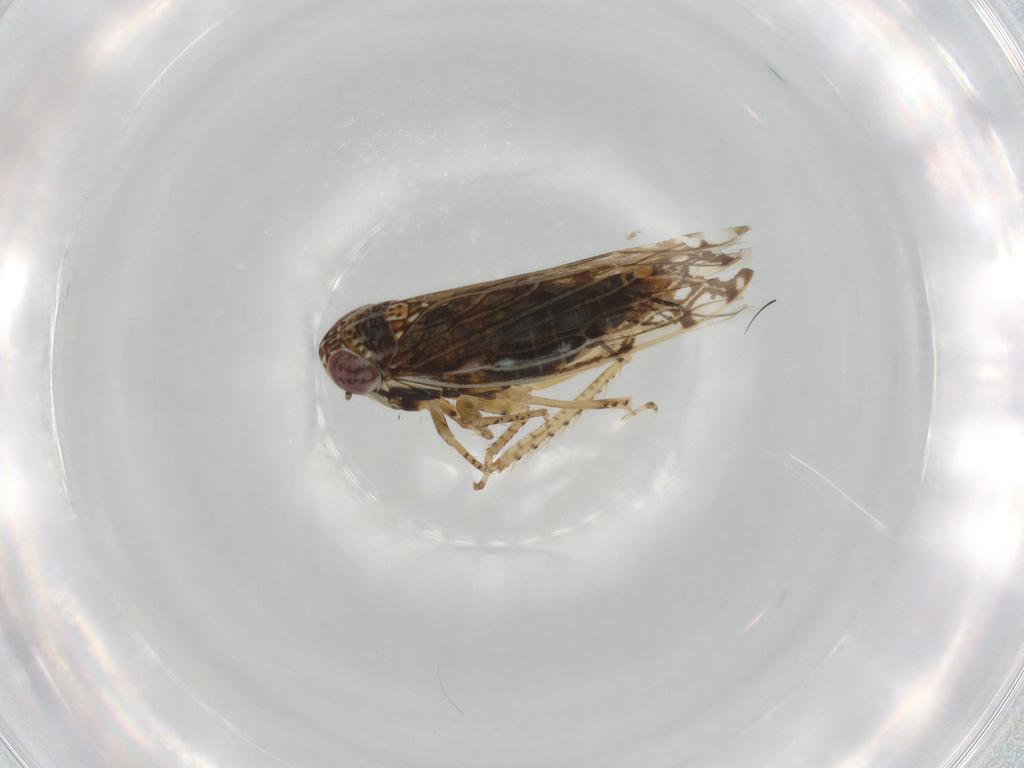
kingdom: Animalia
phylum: Arthropoda
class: Insecta
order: Hemiptera
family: Cicadellidae
